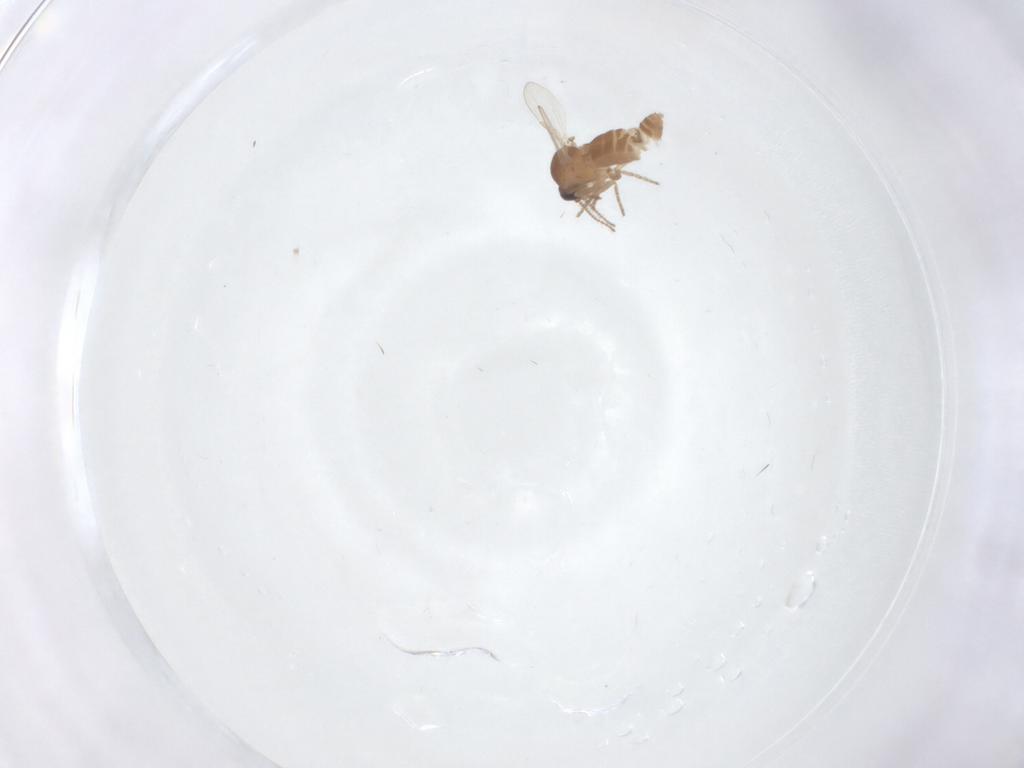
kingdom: Animalia
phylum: Arthropoda
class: Insecta
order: Diptera
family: Ceratopogonidae
